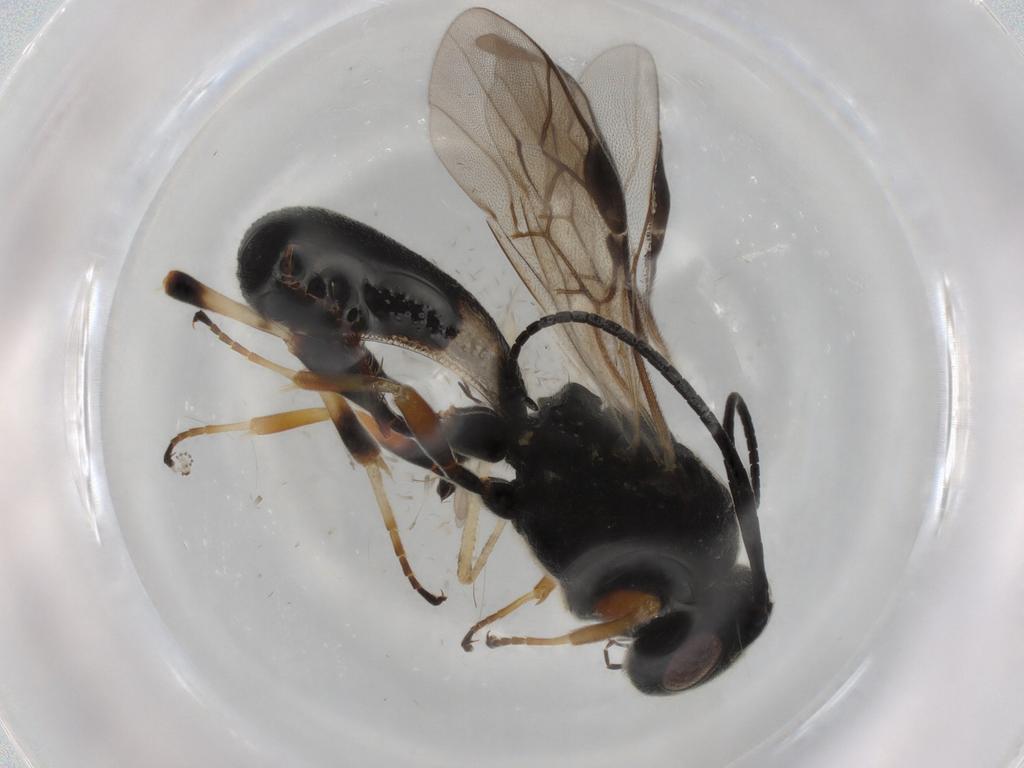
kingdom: Animalia
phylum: Arthropoda
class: Insecta
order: Hymenoptera
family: Braconidae
